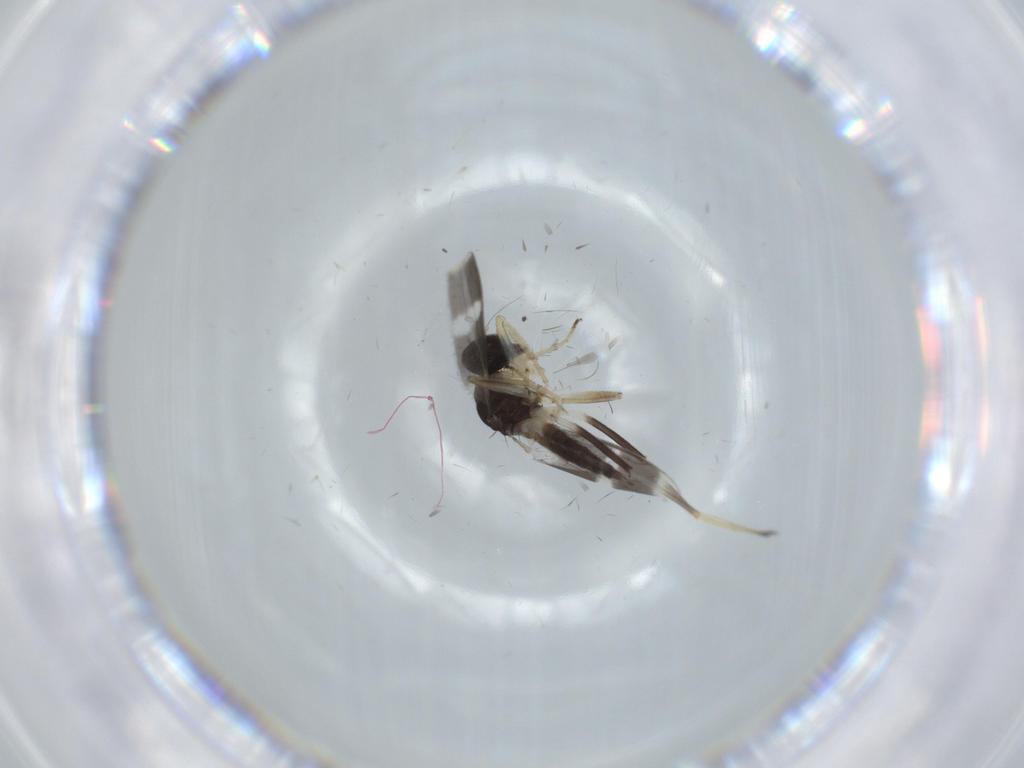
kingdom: Animalia
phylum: Arthropoda
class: Insecta
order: Diptera
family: Hybotidae
